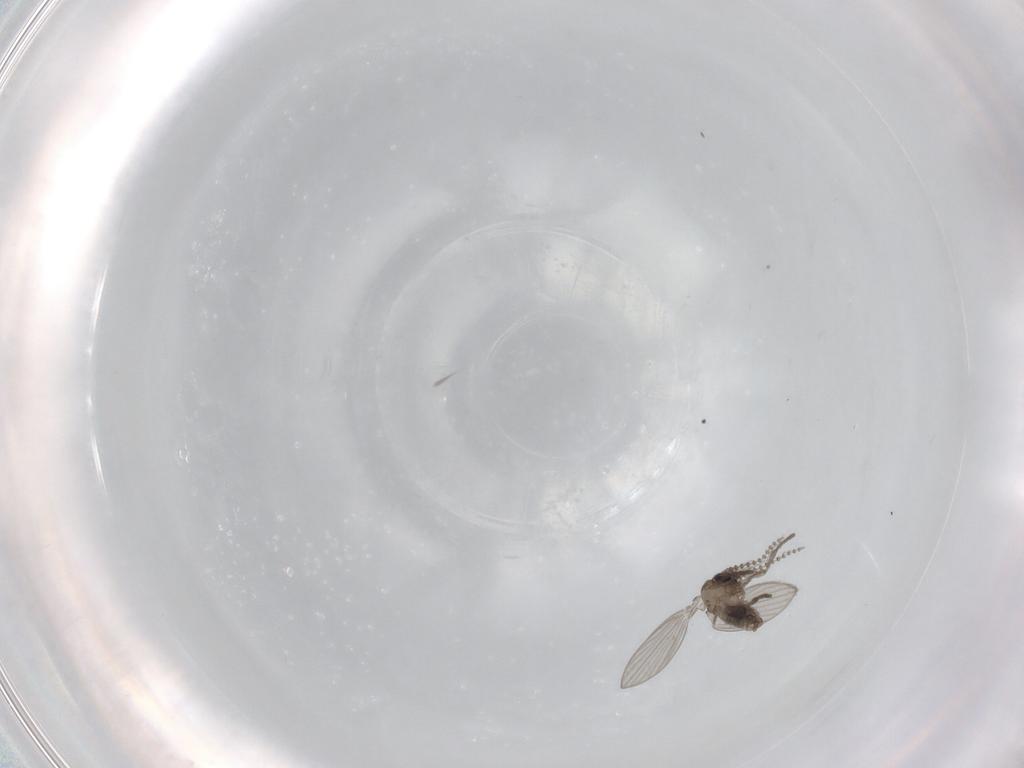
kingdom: Animalia
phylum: Arthropoda
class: Insecta
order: Diptera
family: Psychodidae
